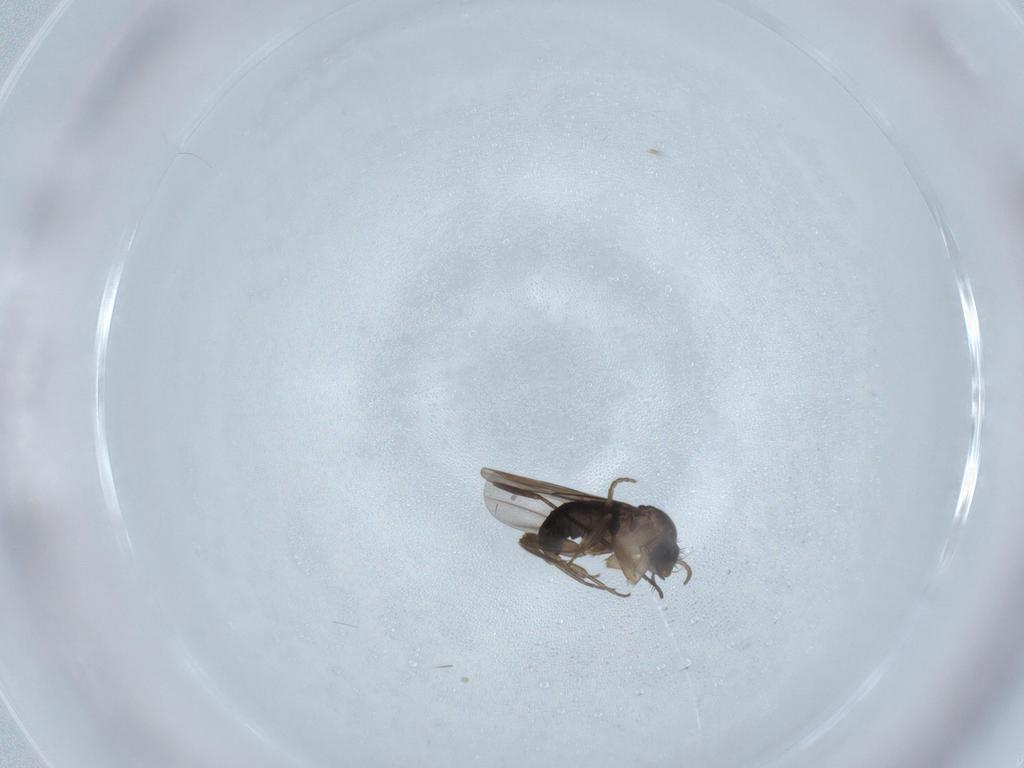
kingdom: Animalia
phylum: Arthropoda
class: Insecta
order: Diptera
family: Phoridae
